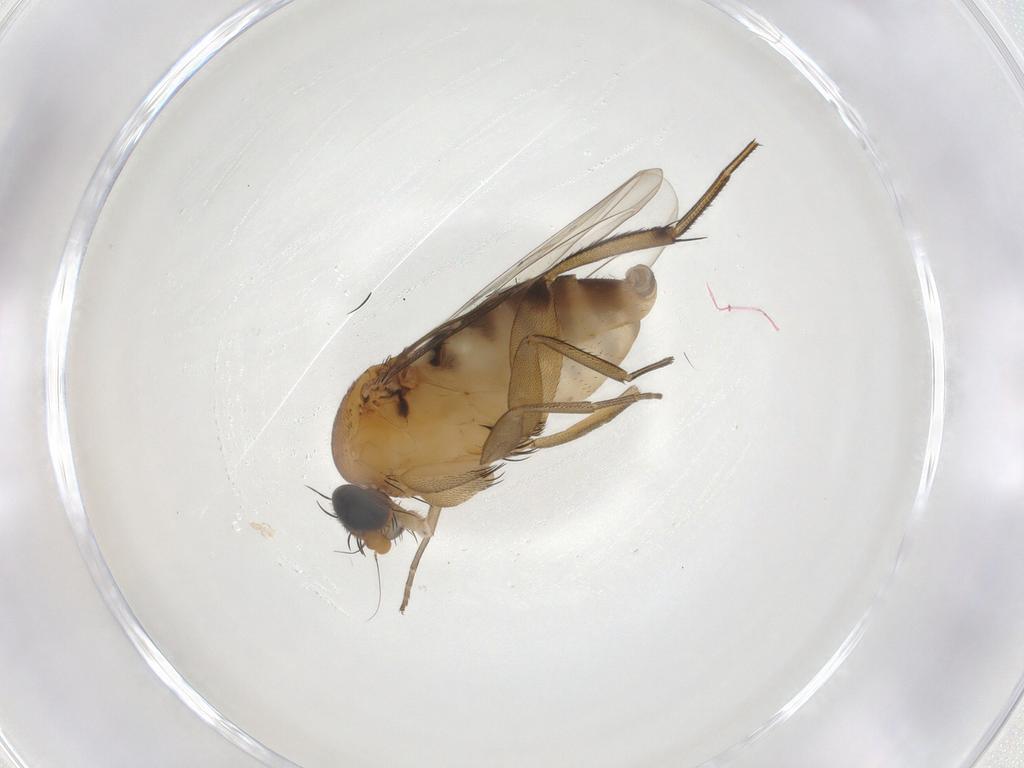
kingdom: Animalia
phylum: Arthropoda
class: Insecta
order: Diptera
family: Phoridae
